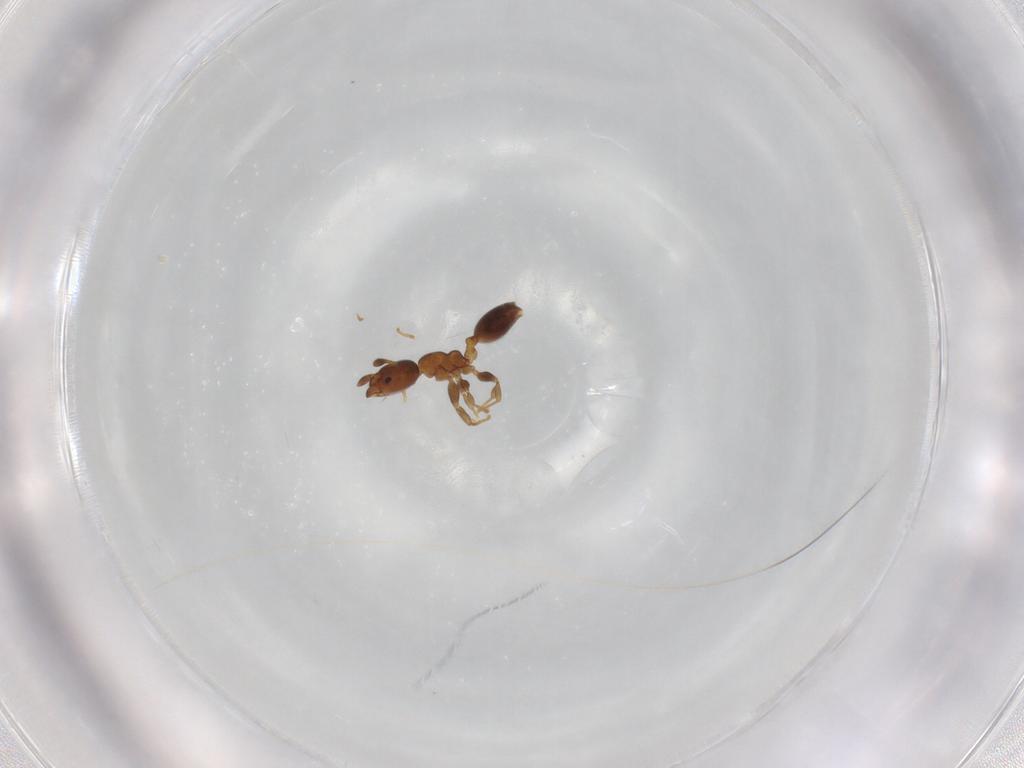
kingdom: Animalia
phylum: Arthropoda
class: Insecta
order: Hymenoptera
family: Formicidae
